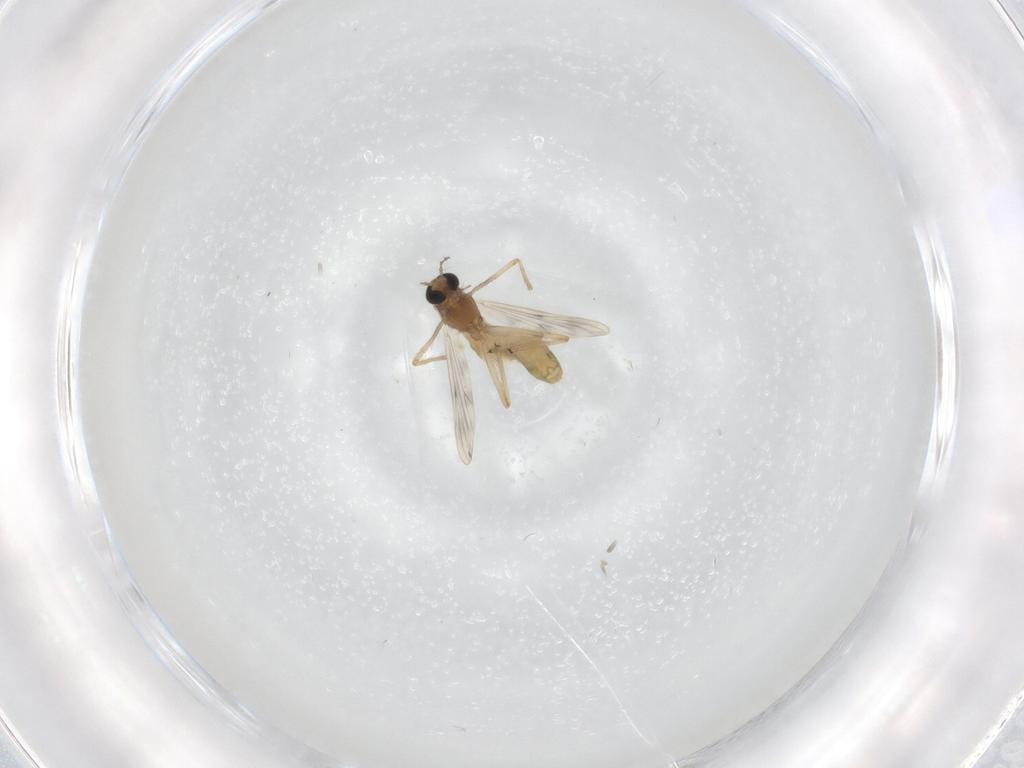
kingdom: Animalia
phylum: Arthropoda
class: Insecta
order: Diptera
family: Chironomidae
